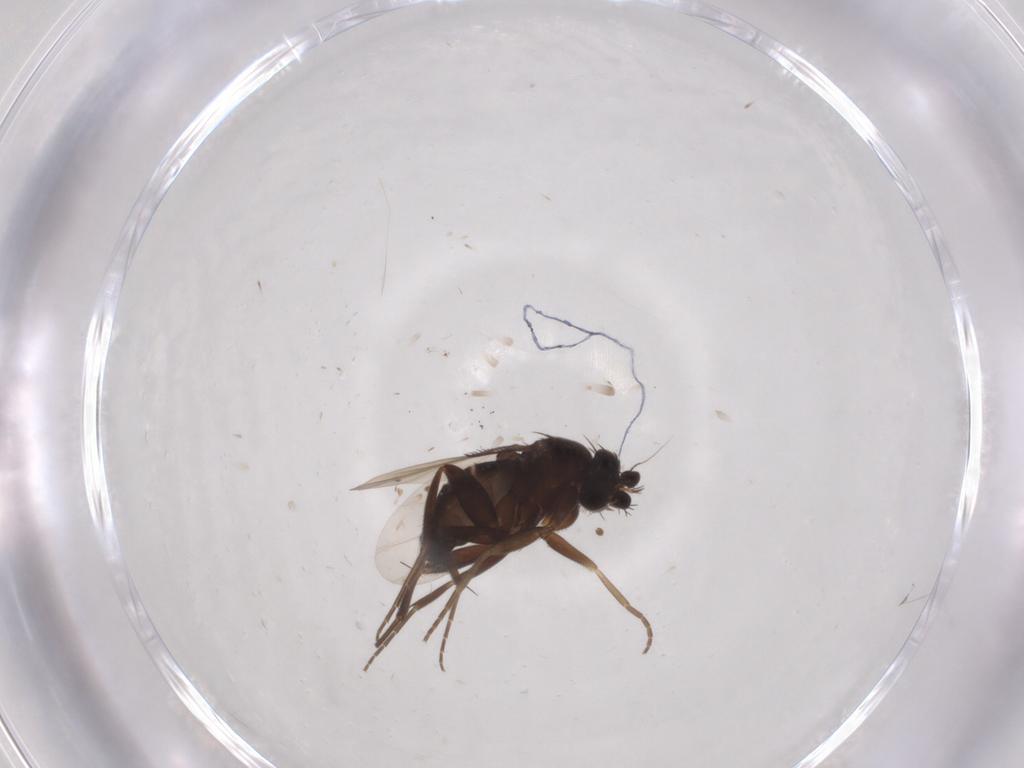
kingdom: Animalia
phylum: Arthropoda
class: Insecta
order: Diptera
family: Phoridae
